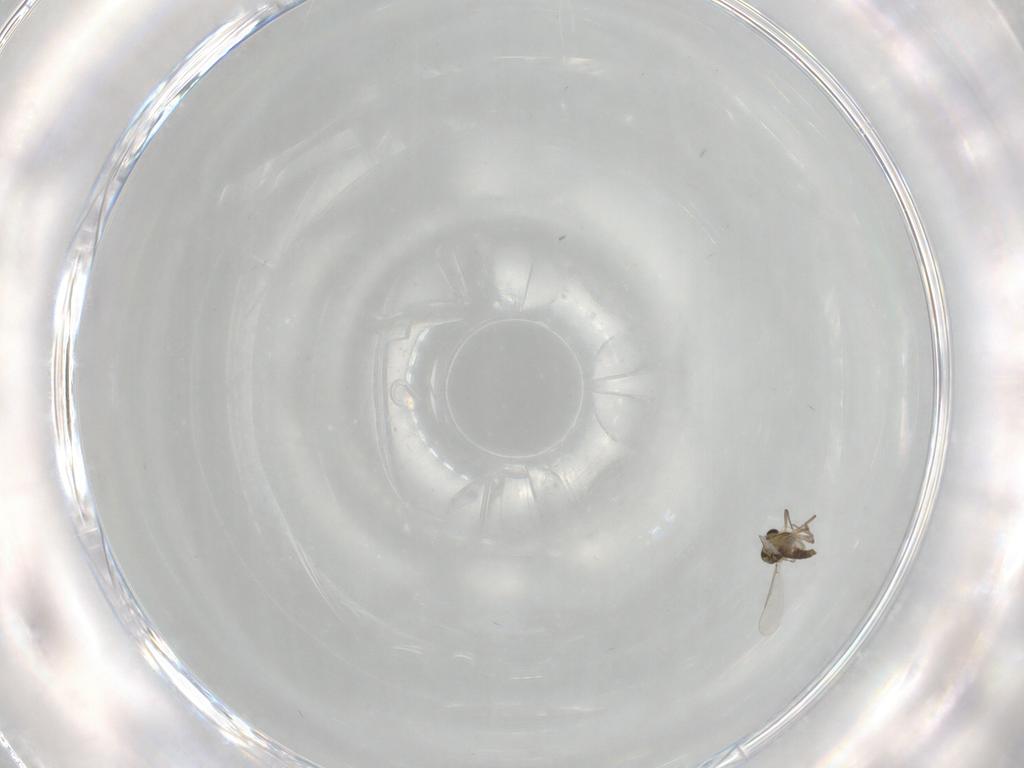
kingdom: Animalia
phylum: Arthropoda
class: Insecta
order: Diptera
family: Chironomidae
